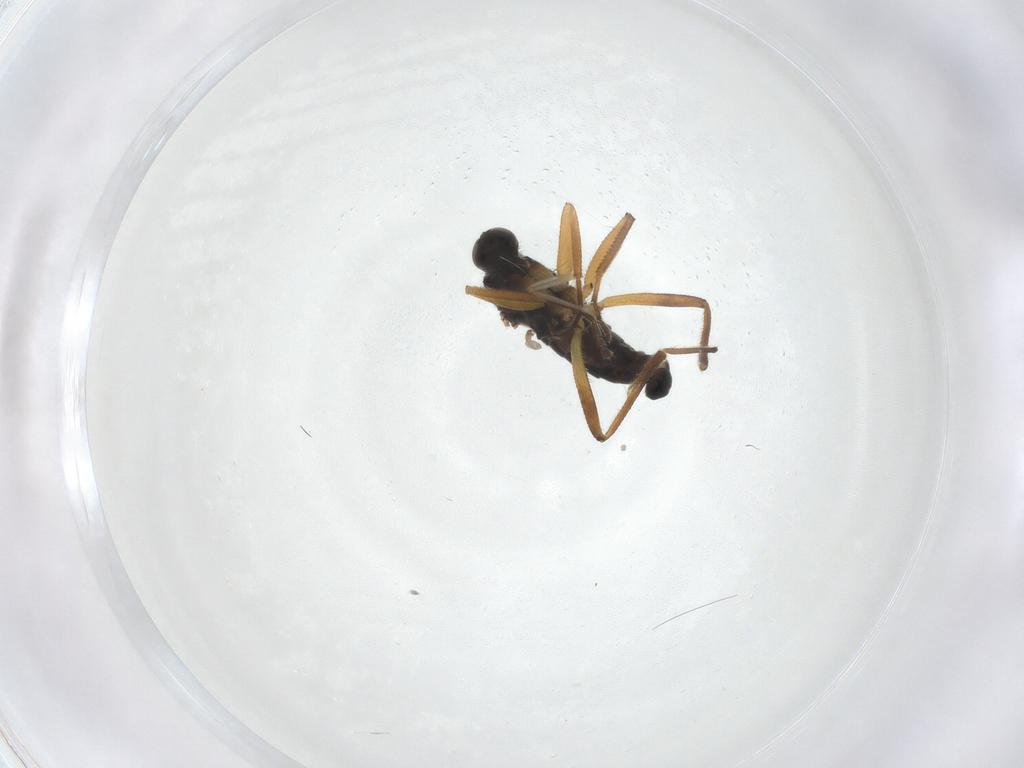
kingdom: Animalia
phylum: Arthropoda
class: Insecta
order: Diptera
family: Hybotidae
